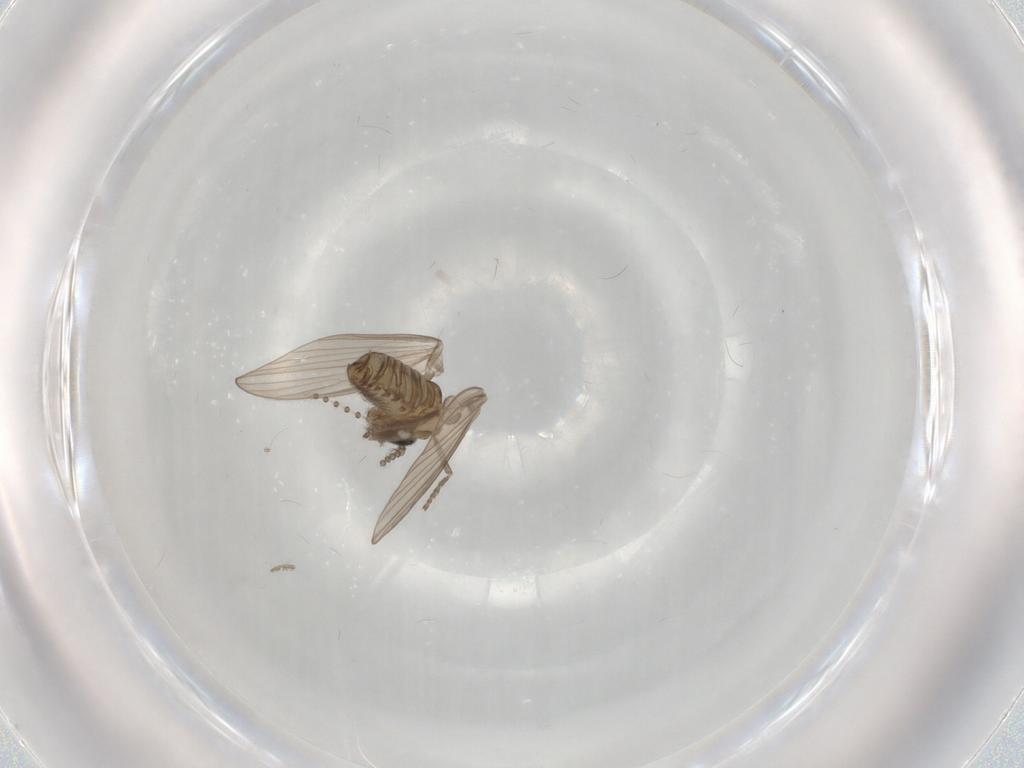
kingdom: Animalia
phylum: Arthropoda
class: Insecta
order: Diptera
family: Psychodidae
